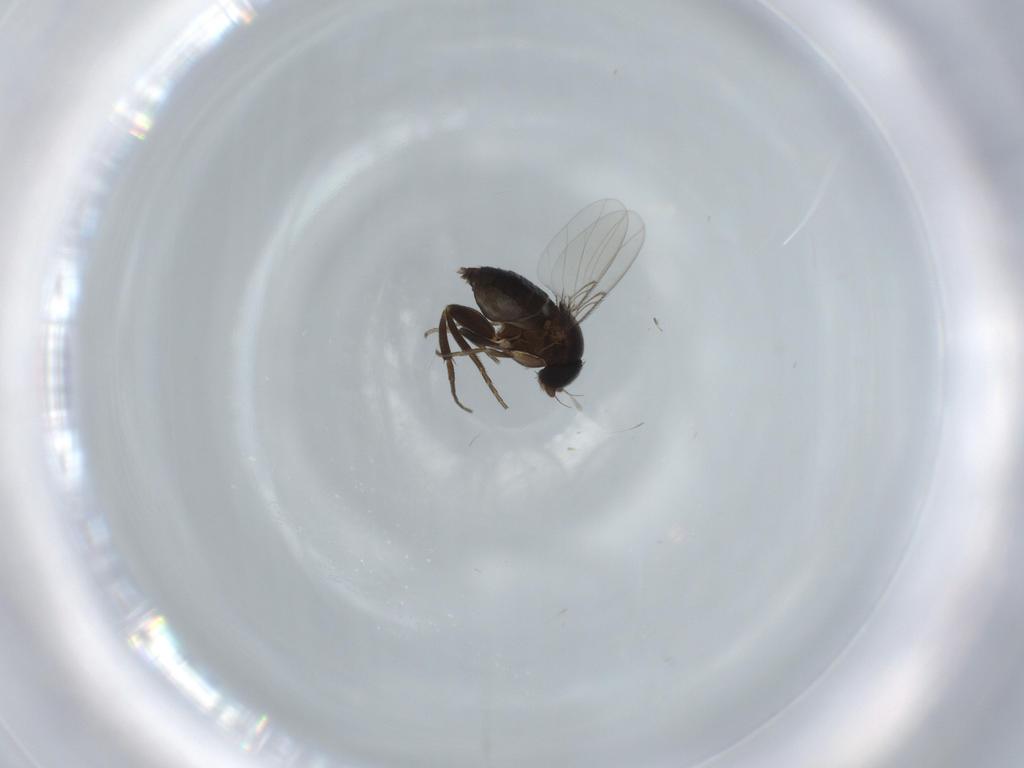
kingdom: Animalia
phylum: Arthropoda
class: Insecta
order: Diptera
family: Phoridae
